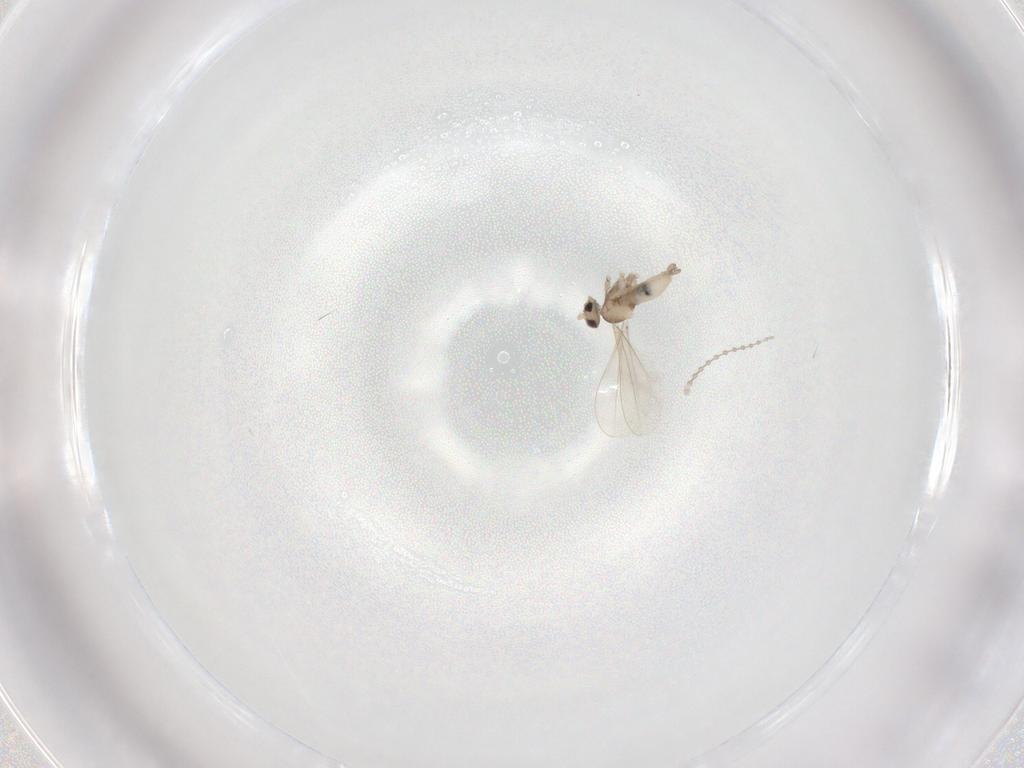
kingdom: Animalia
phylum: Arthropoda
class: Insecta
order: Diptera
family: Cecidomyiidae
